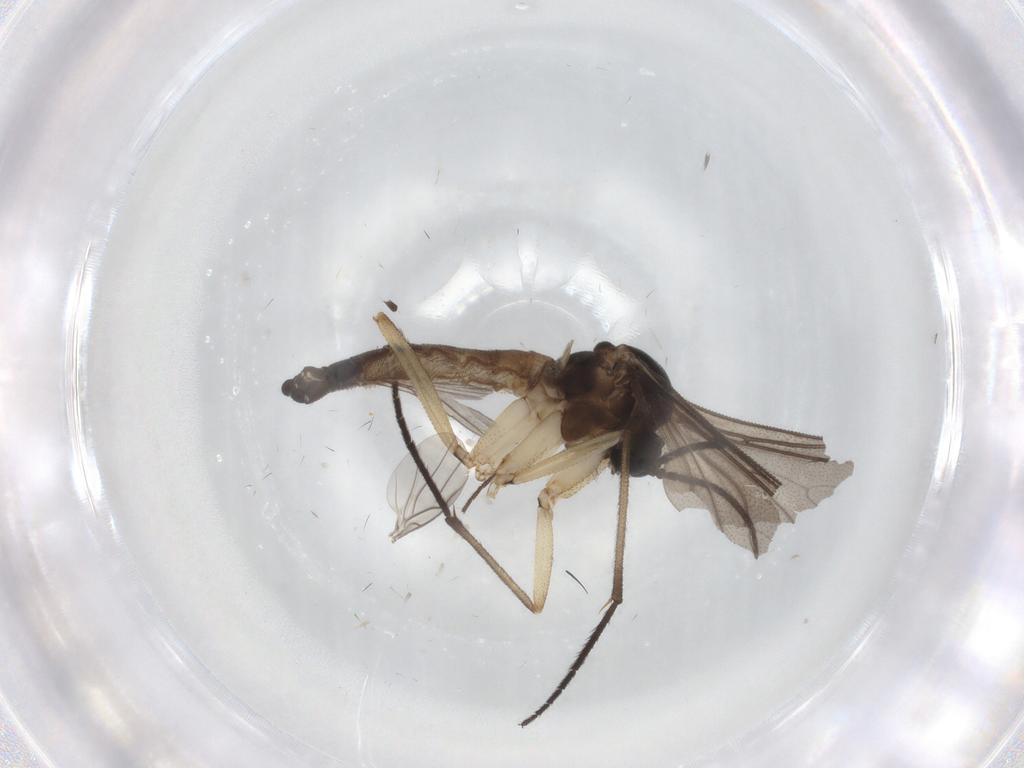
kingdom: Animalia
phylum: Arthropoda
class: Insecta
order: Diptera
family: Sciaridae
